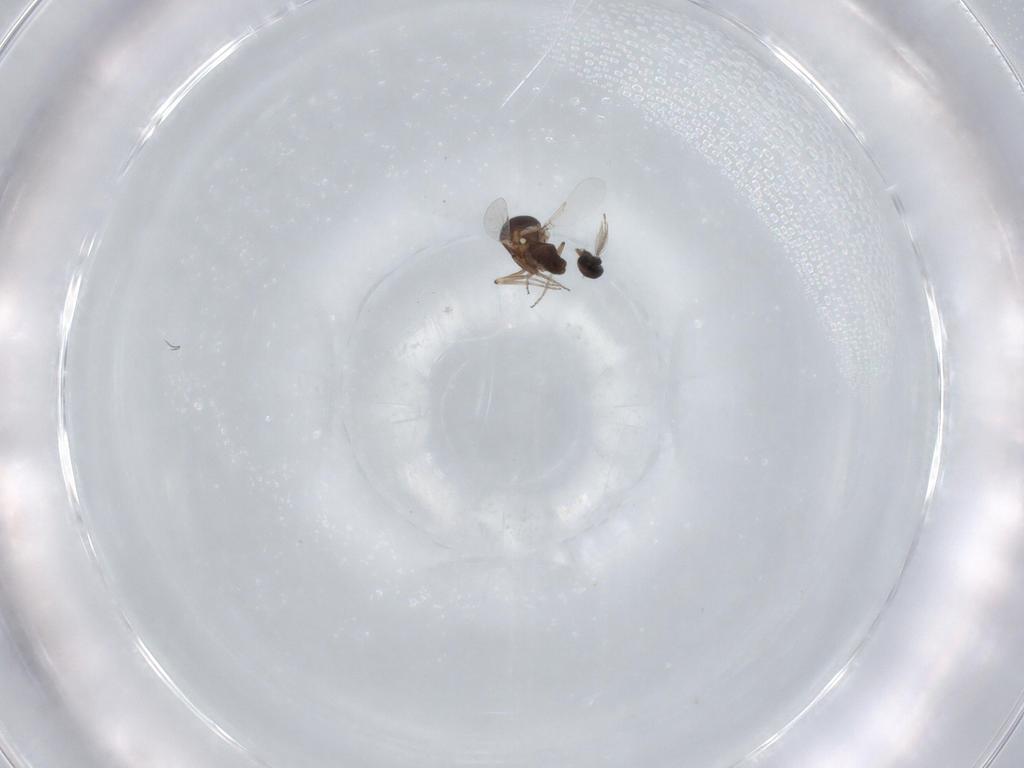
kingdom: Animalia
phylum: Arthropoda
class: Insecta
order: Diptera
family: Ceratopogonidae
